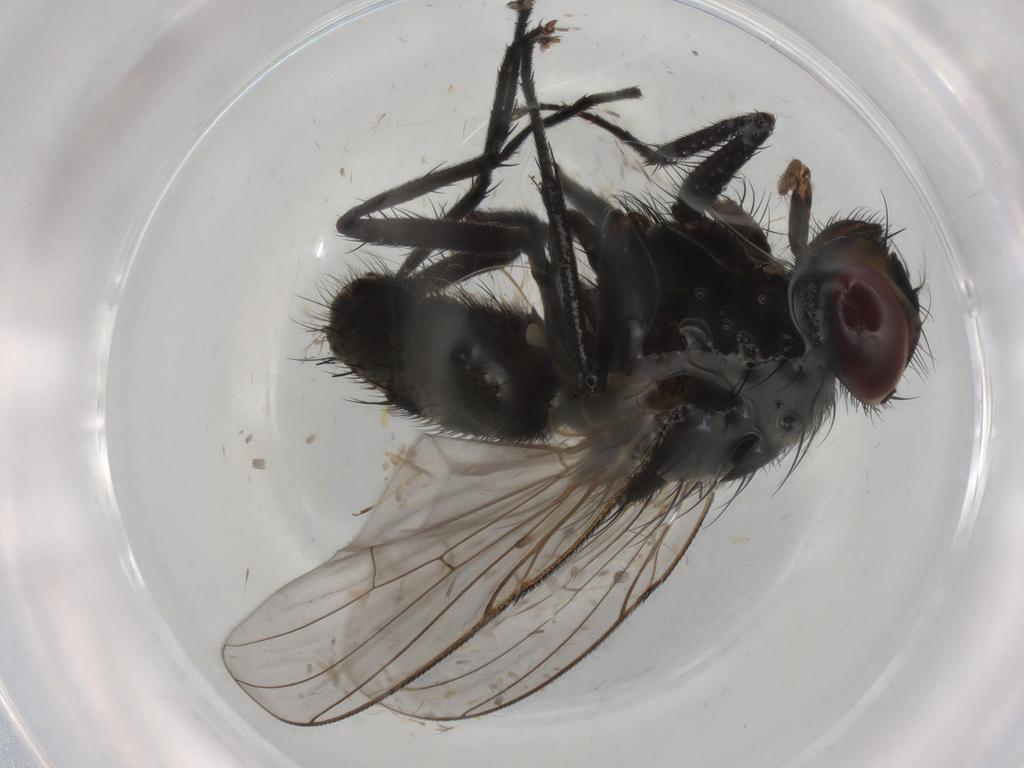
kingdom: Animalia
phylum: Arthropoda
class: Insecta
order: Diptera
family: Muscidae
